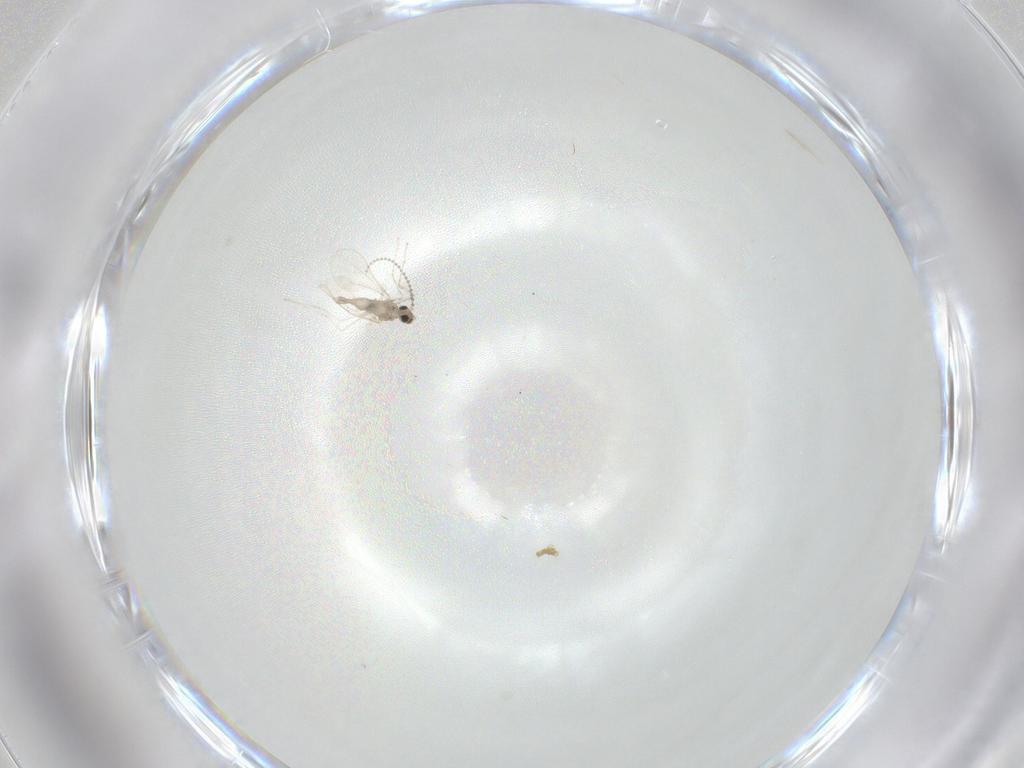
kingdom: Animalia
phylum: Arthropoda
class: Insecta
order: Diptera
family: Cecidomyiidae
